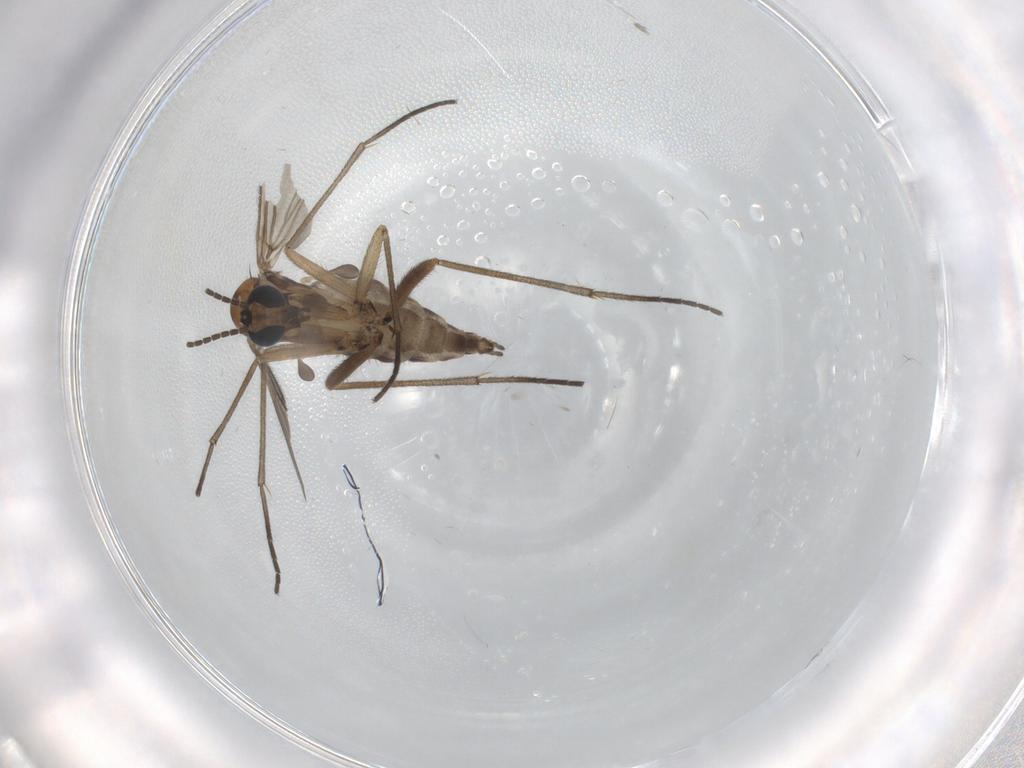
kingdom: Animalia
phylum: Arthropoda
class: Insecta
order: Diptera
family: Sciaridae
